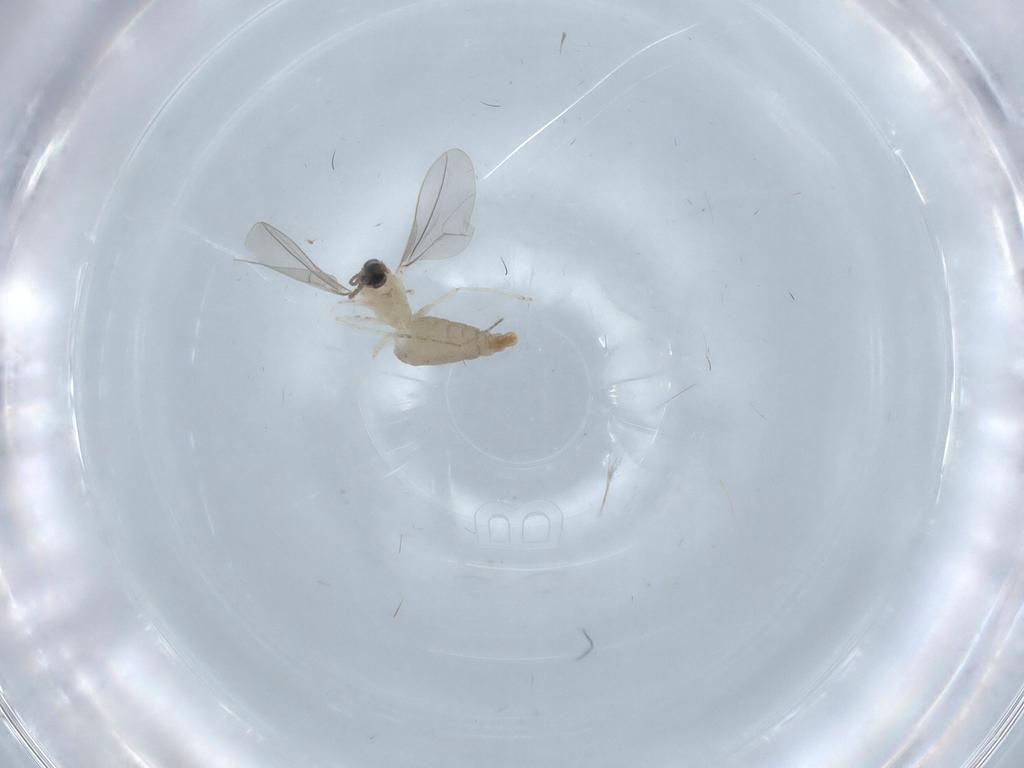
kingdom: Animalia
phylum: Arthropoda
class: Insecta
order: Diptera
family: Cecidomyiidae
